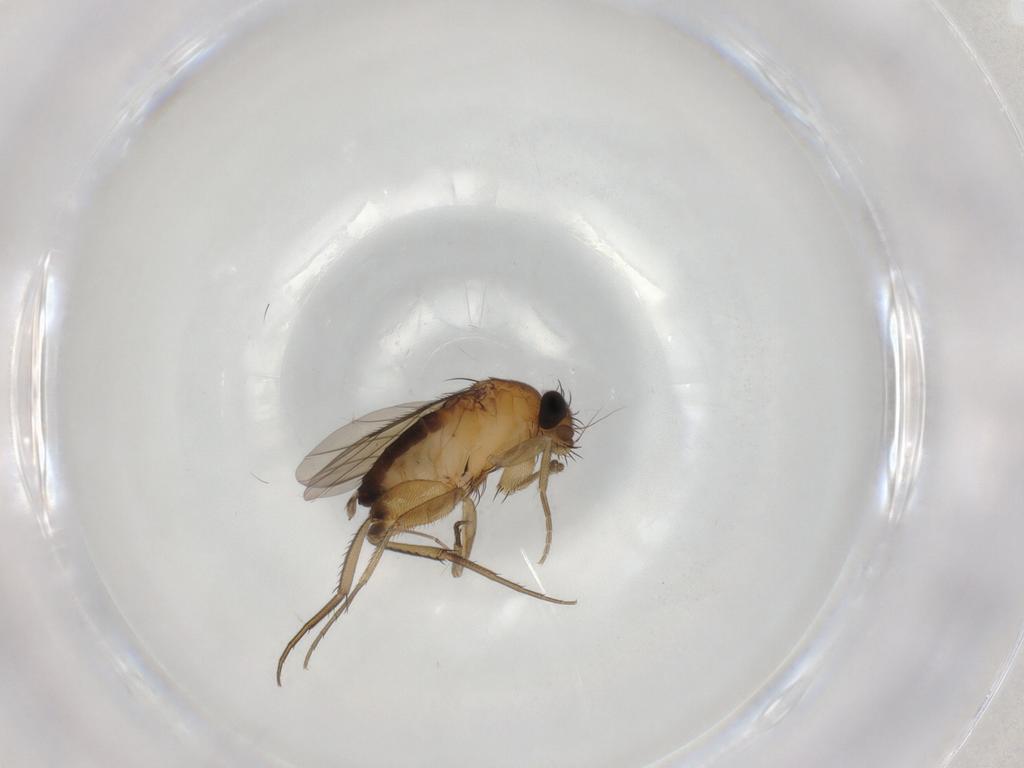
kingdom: Animalia
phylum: Arthropoda
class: Insecta
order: Diptera
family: Phoridae
